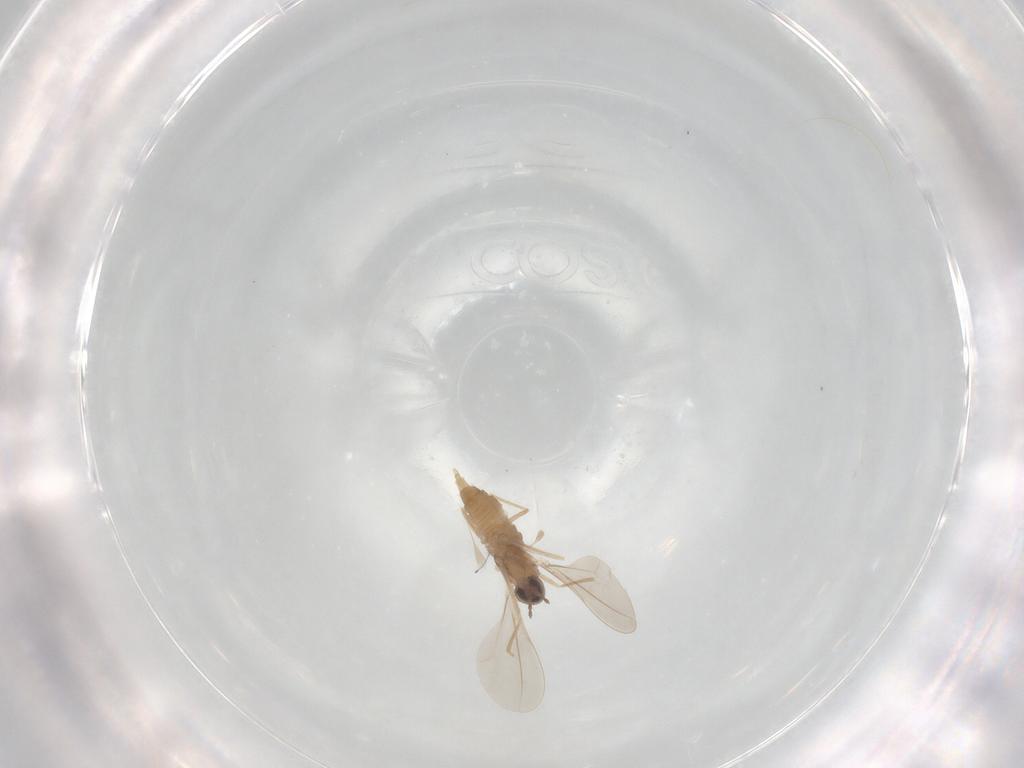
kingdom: Animalia
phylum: Arthropoda
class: Insecta
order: Diptera
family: Cecidomyiidae
